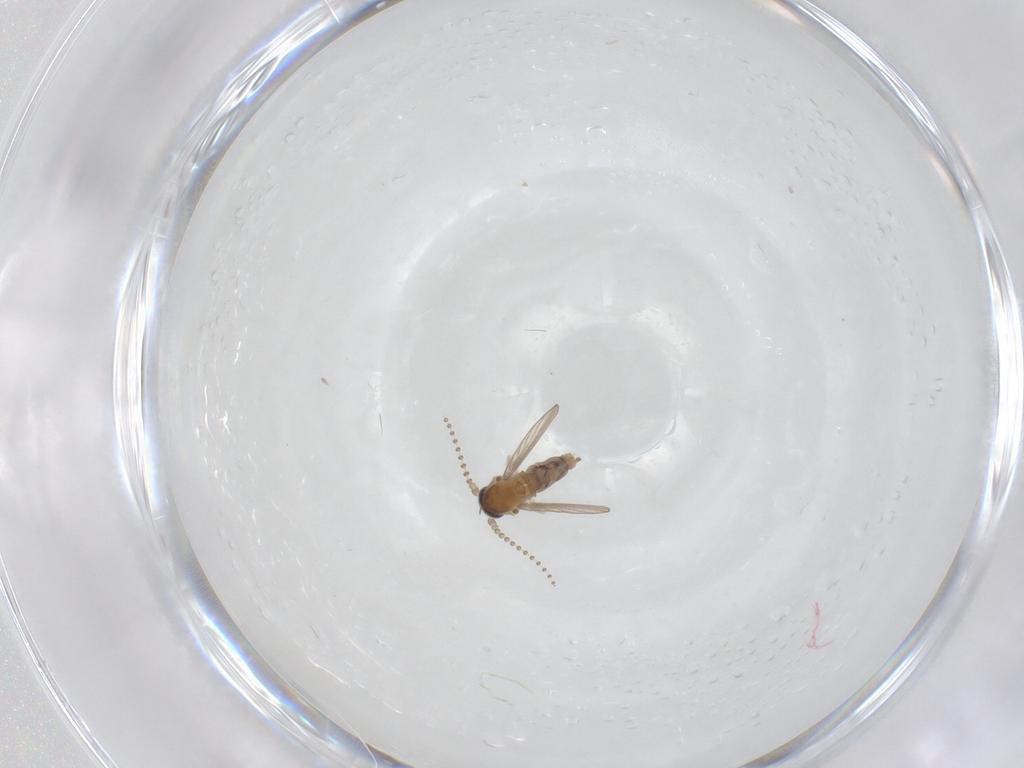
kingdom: Animalia
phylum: Arthropoda
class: Insecta
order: Diptera
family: Psychodidae
